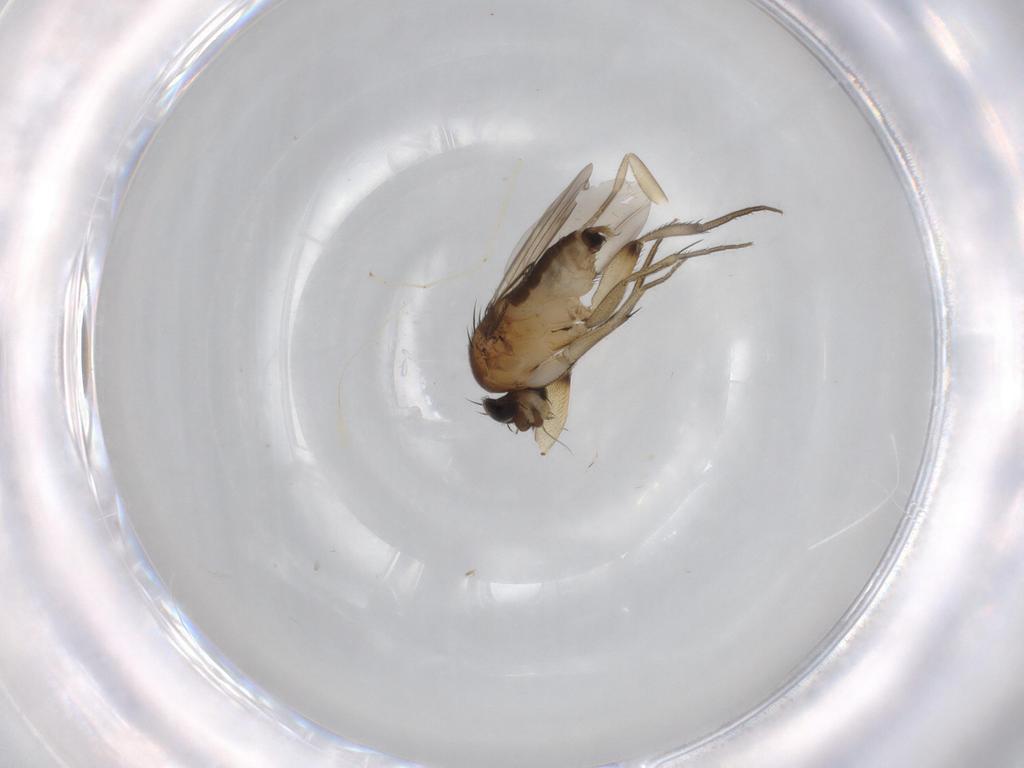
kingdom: Animalia
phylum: Arthropoda
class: Insecta
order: Diptera
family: Phoridae
